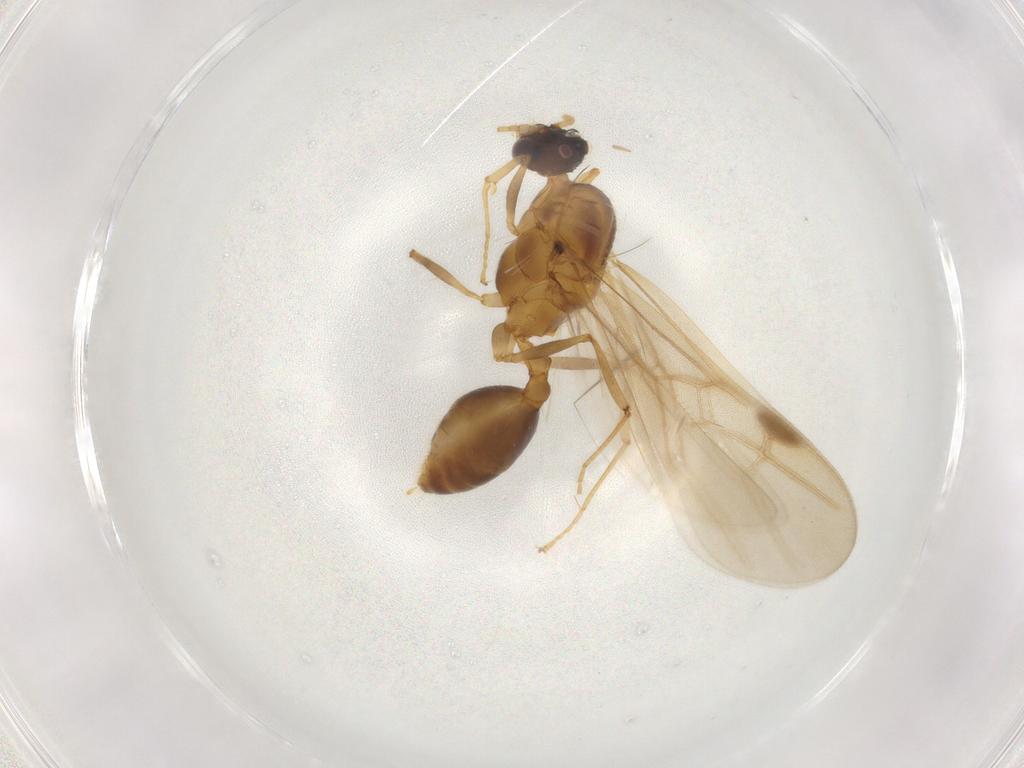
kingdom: Animalia
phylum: Arthropoda
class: Insecta
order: Hymenoptera
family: Formicidae
